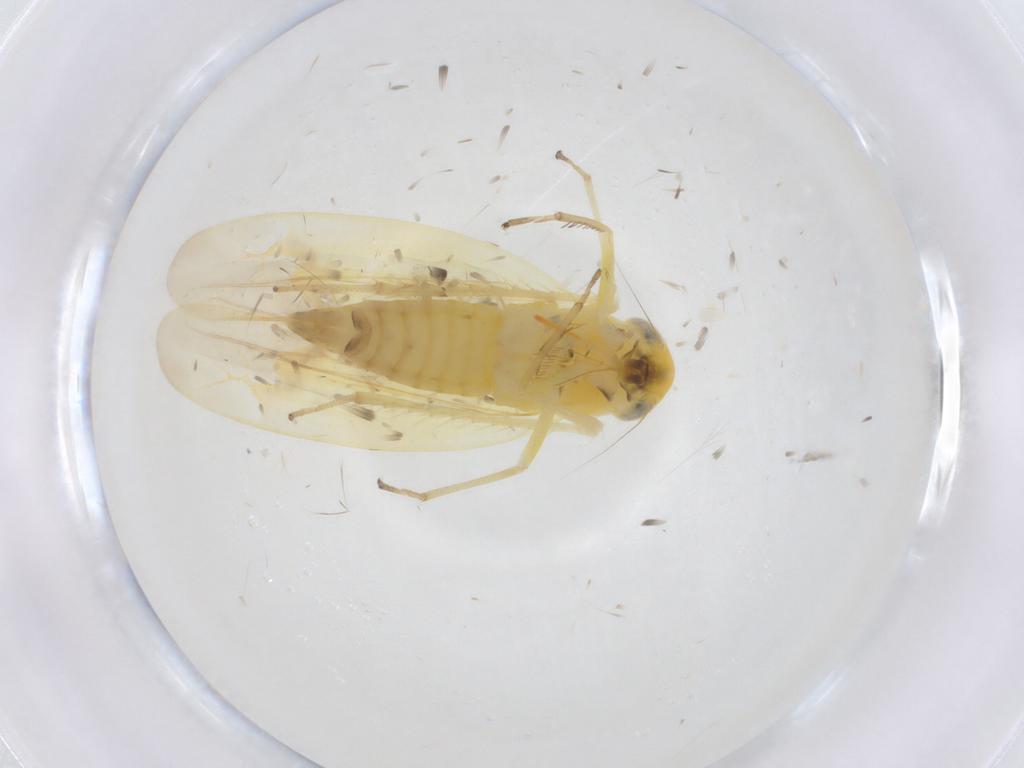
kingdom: Animalia
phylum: Arthropoda
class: Insecta
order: Hemiptera
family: Cicadellidae
